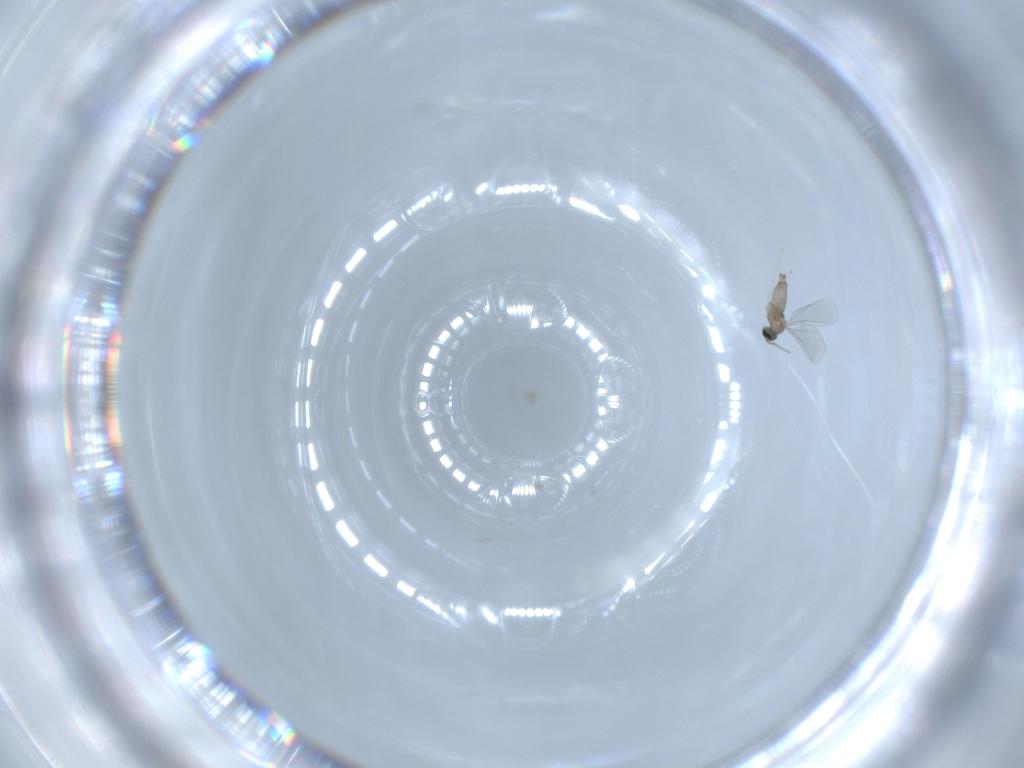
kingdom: Animalia
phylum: Arthropoda
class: Insecta
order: Diptera
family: Cecidomyiidae
